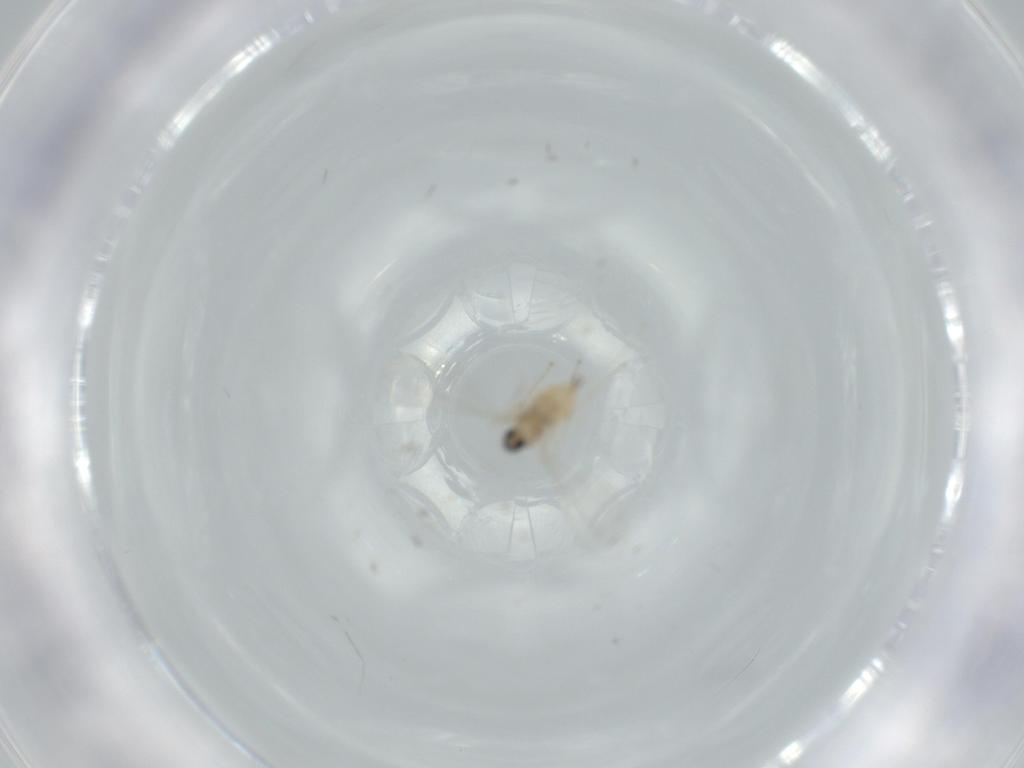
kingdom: Animalia
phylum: Arthropoda
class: Insecta
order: Diptera
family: Cecidomyiidae
